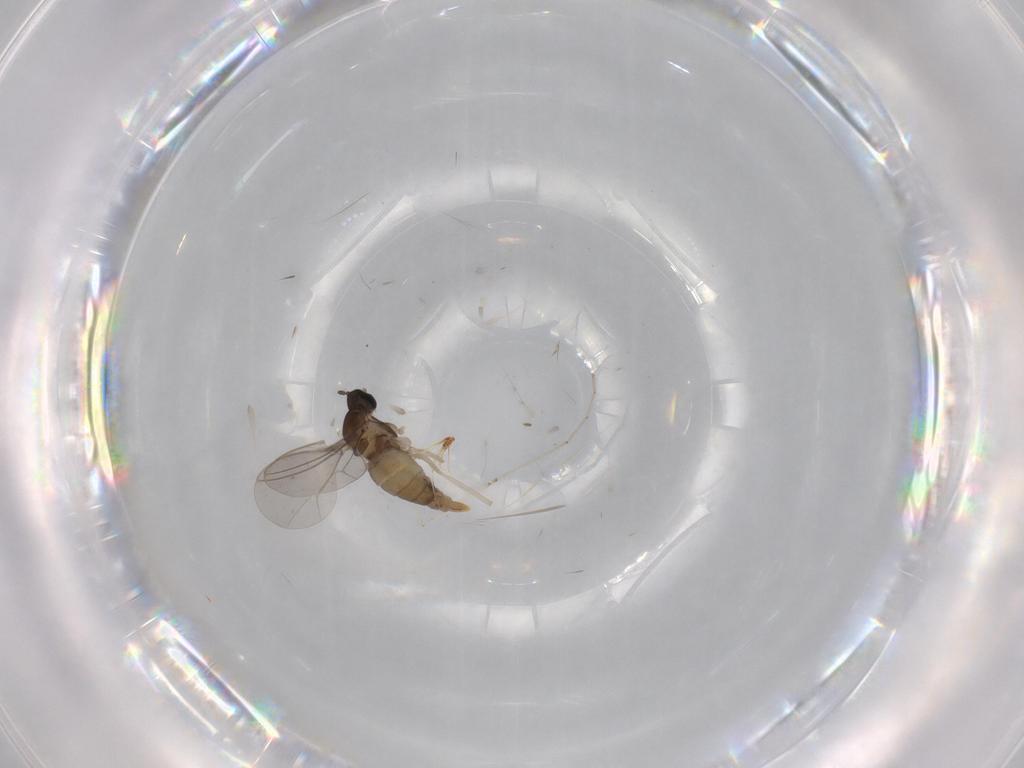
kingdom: Animalia
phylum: Arthropoda
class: Insecta
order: Diptera
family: Cecidomyiidae
